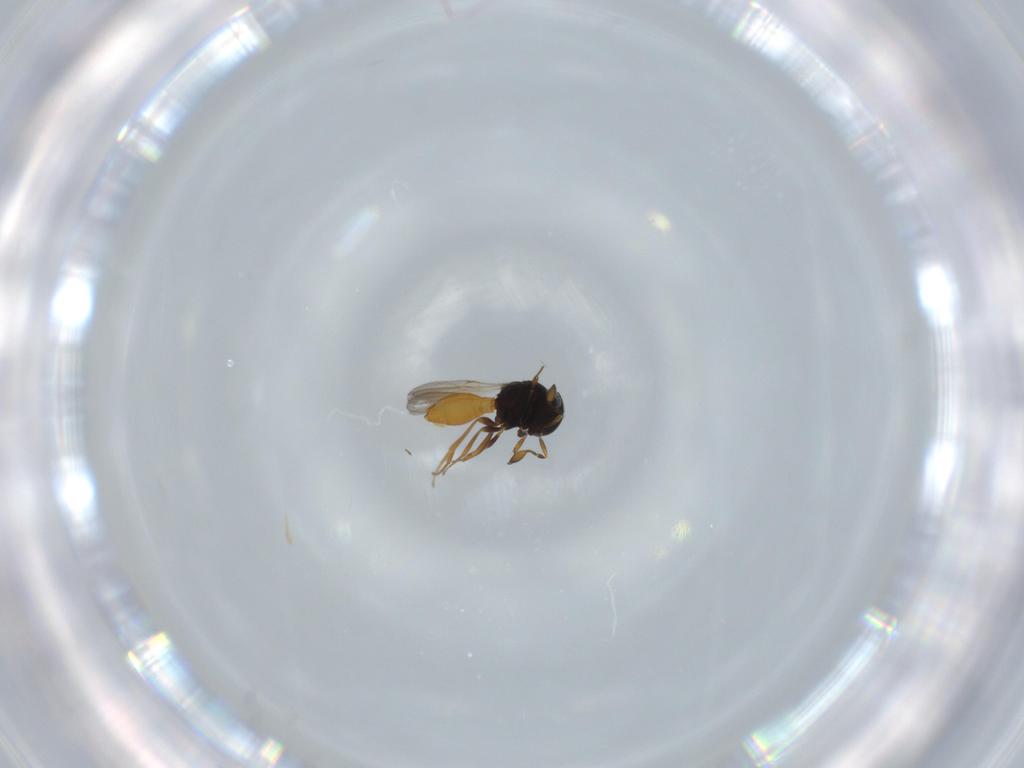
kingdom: Animalia
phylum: Arthropoda
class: Insecta
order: Hymenoptera
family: Scelionidae
